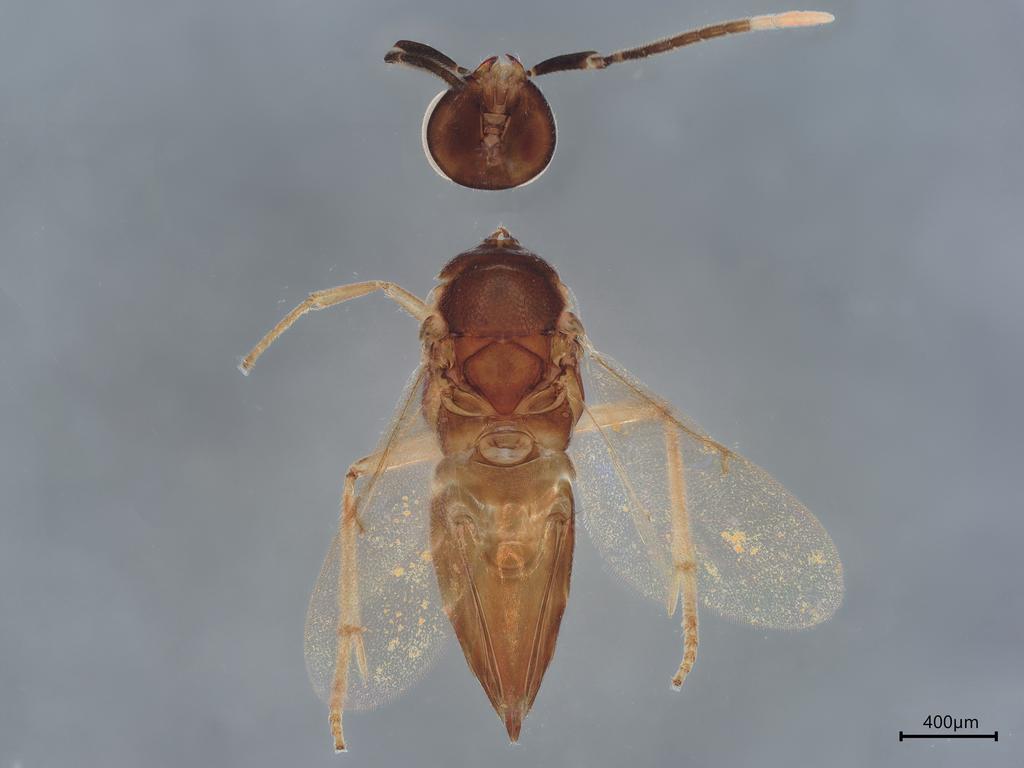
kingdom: Animalia
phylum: Arthropoda
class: Insecta
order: Hymenoptera
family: Encyrtidae
